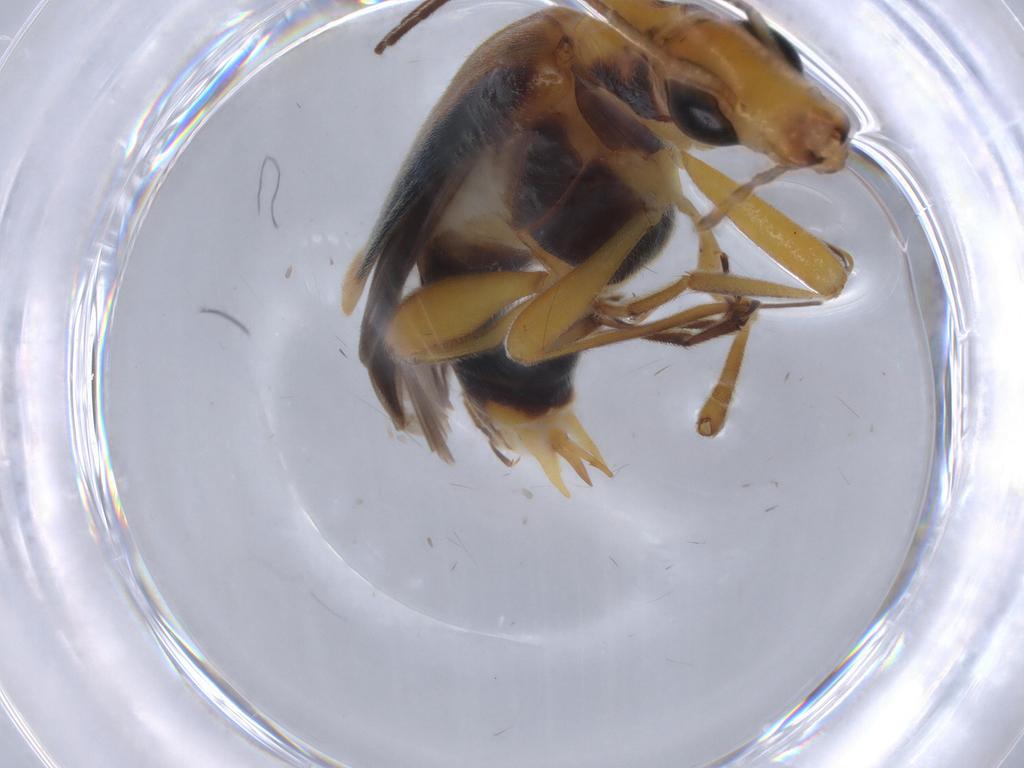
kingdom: Animalia
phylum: Arthropoda
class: Insecta
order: Coleoptera
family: Oedemeridae
